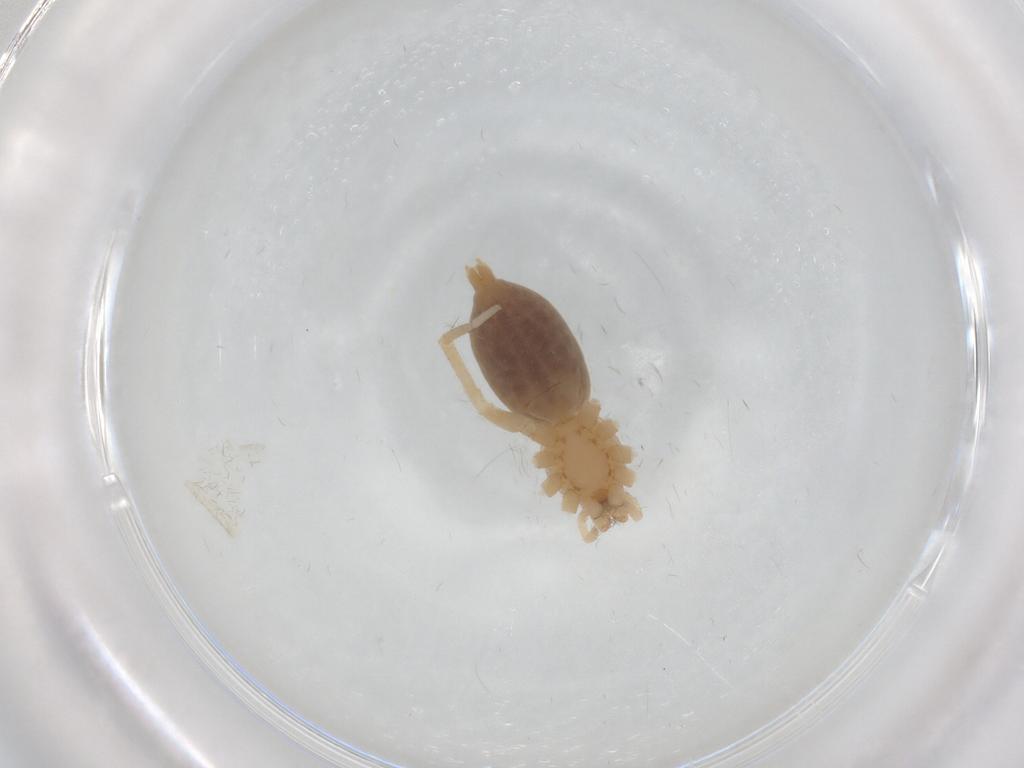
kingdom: Animalia
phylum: Arthropoda
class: Arachnida
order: Araneae
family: Clubionidae
